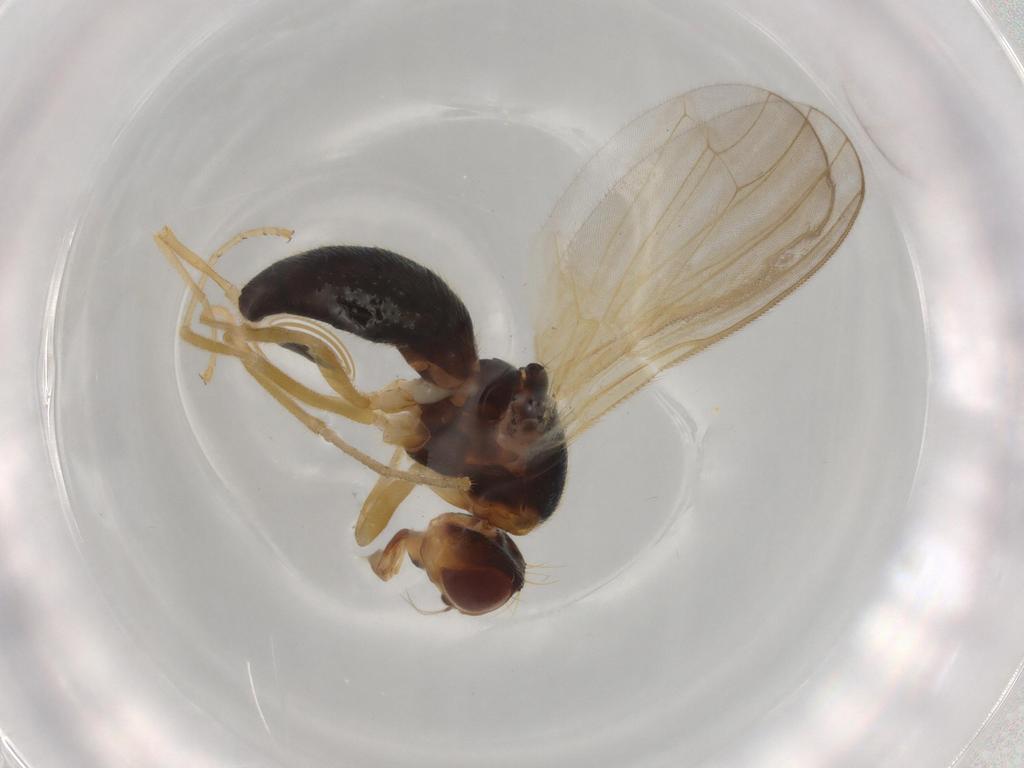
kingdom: Animalia
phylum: Arthropoda
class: Insecta
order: Diptera
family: Psilidae
